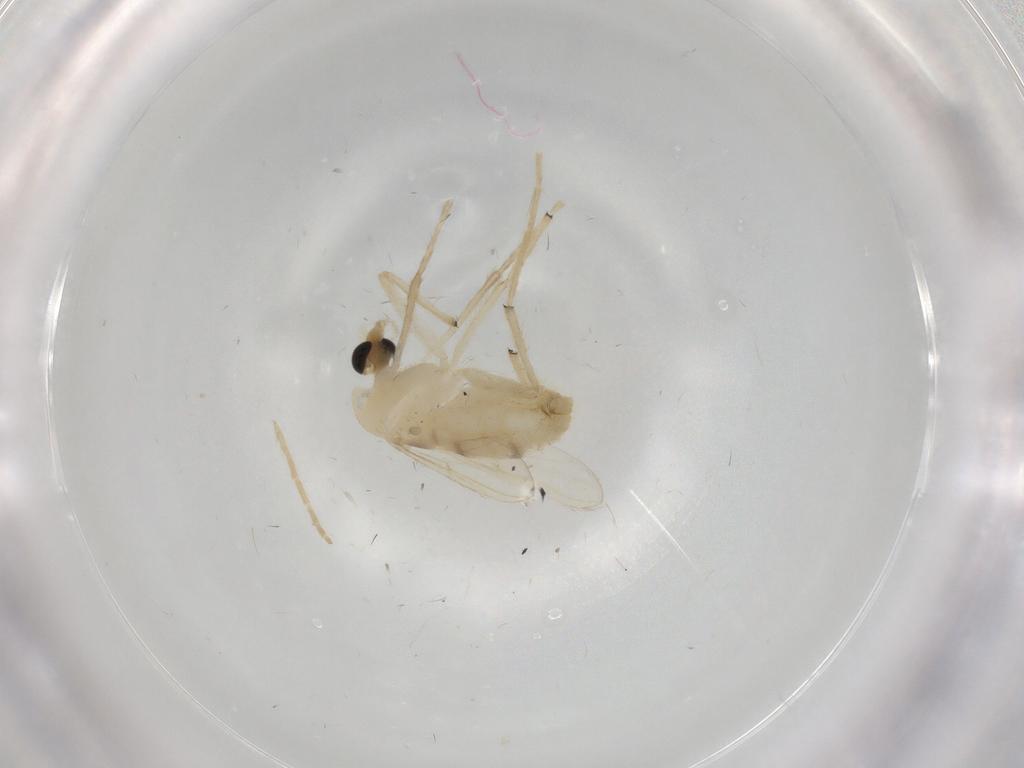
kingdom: Animalia
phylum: Arthropoda
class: Insecta
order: Diptera
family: Chironomidae
